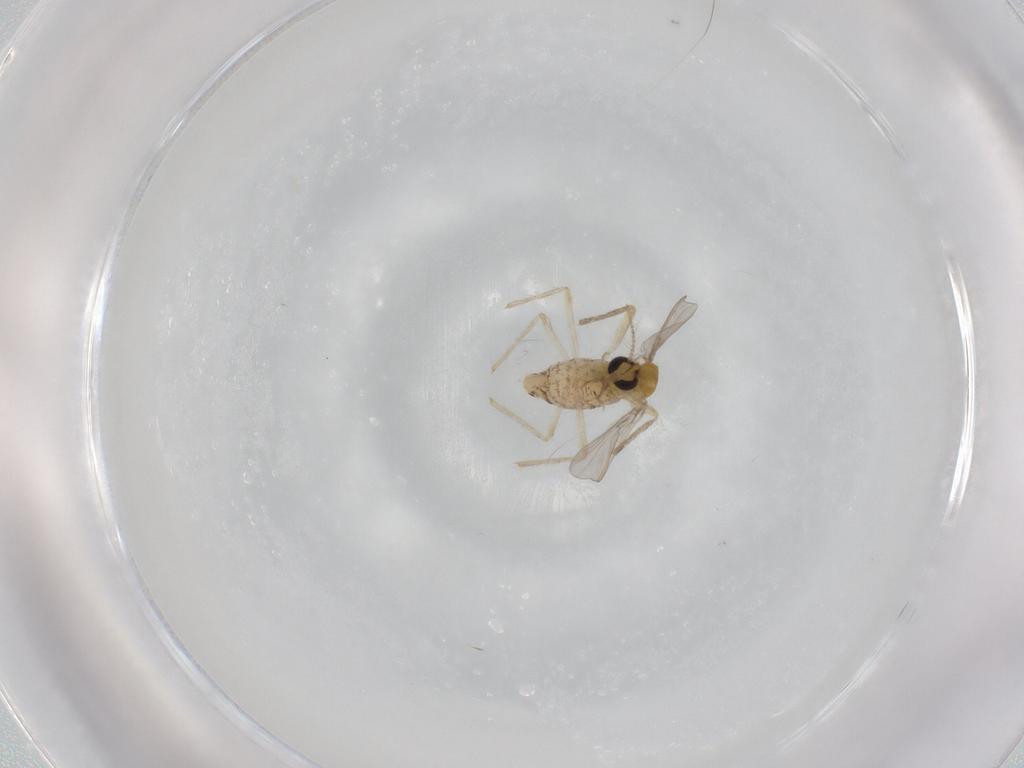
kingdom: Animalia
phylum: Arthropoda
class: Insecta
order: Diptera
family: Chironomidae
